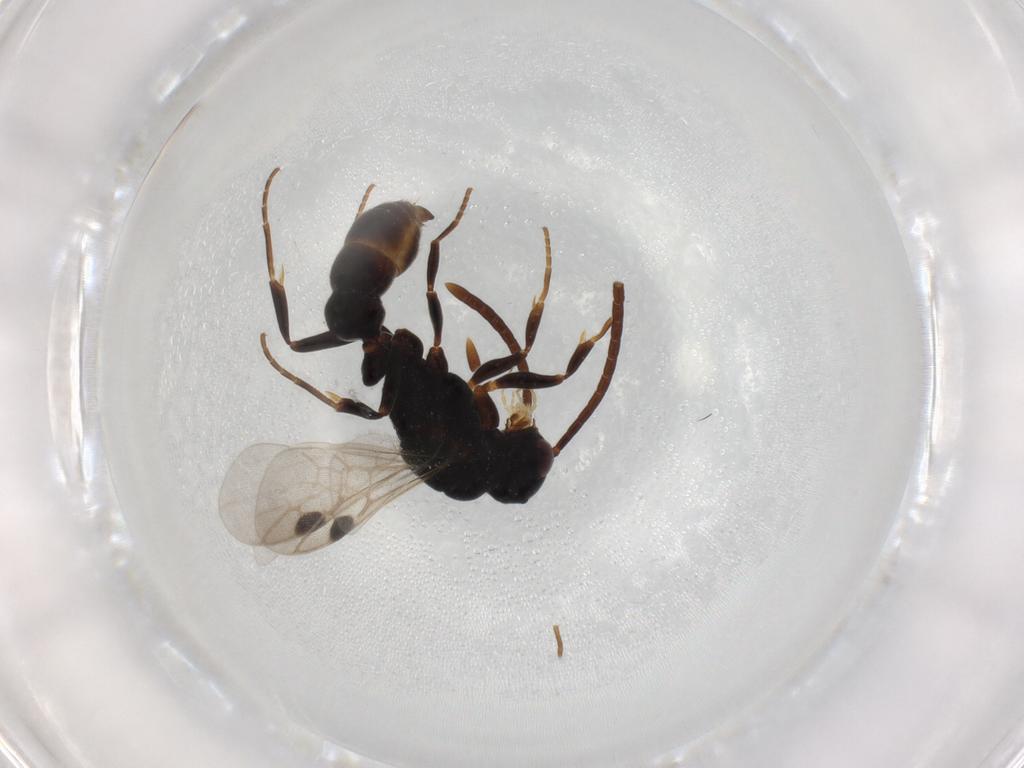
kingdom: Animalia
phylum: Arthropoda
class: Insecta
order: Hymenoptera
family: Formicidae
